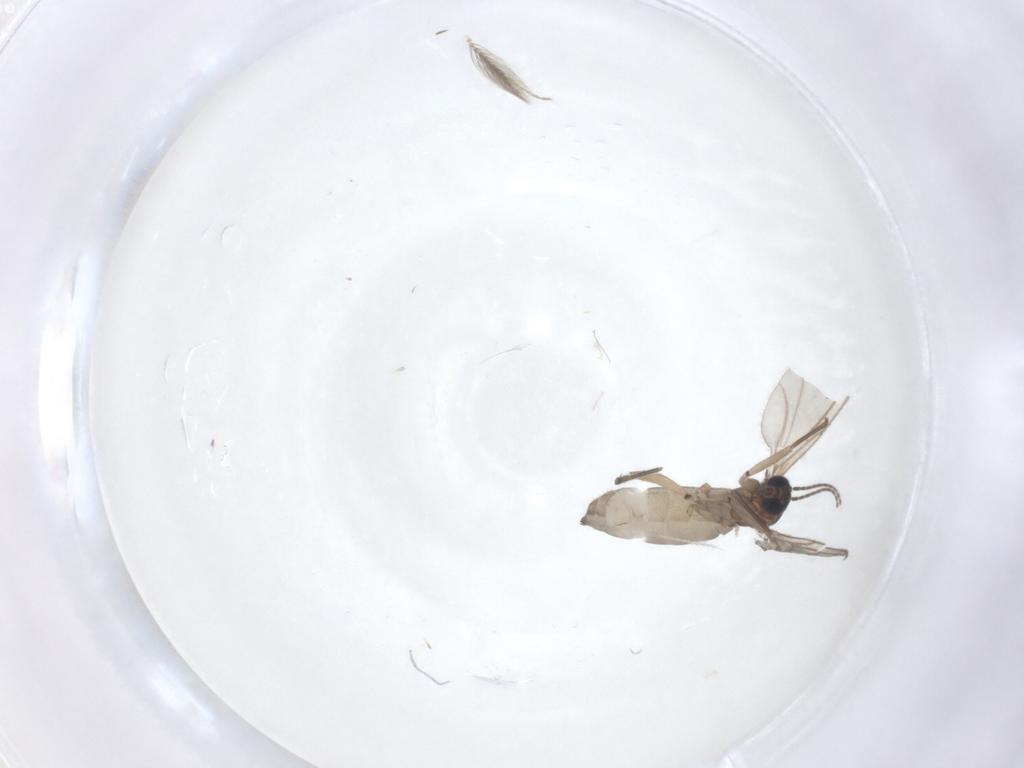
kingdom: Animalia
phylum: Arthropoda
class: Insecta
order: Diptera
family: Sciaridae
